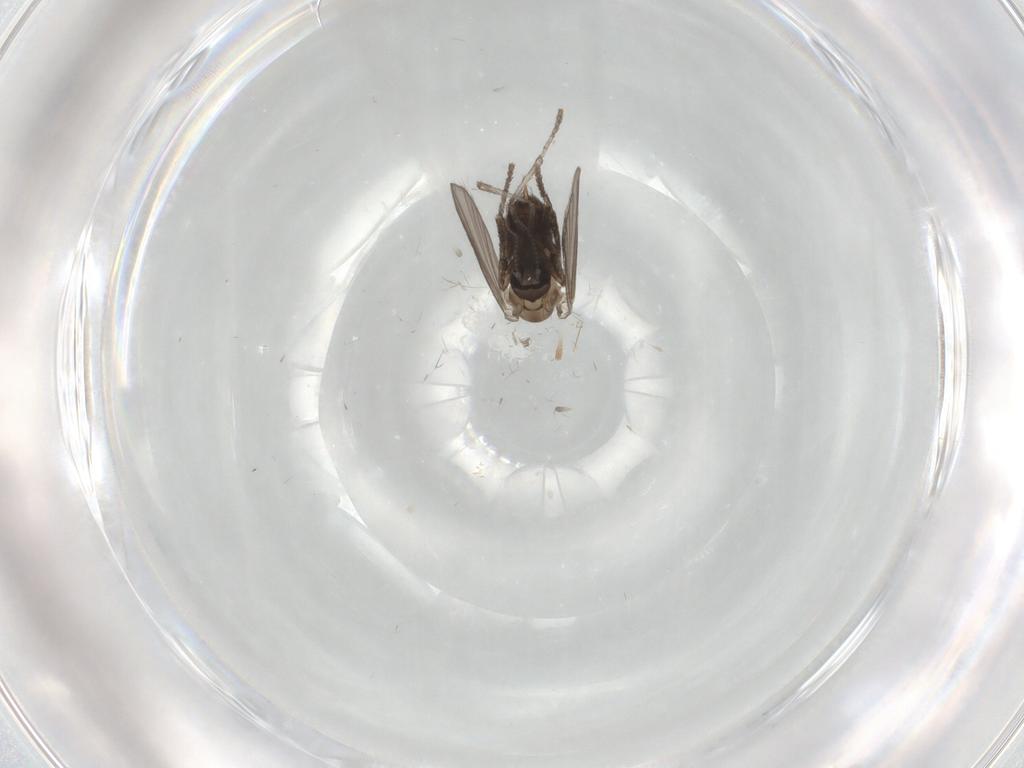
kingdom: Animalia
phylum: Arthropoda
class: Insecta
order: Diptera
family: Psychodidae
